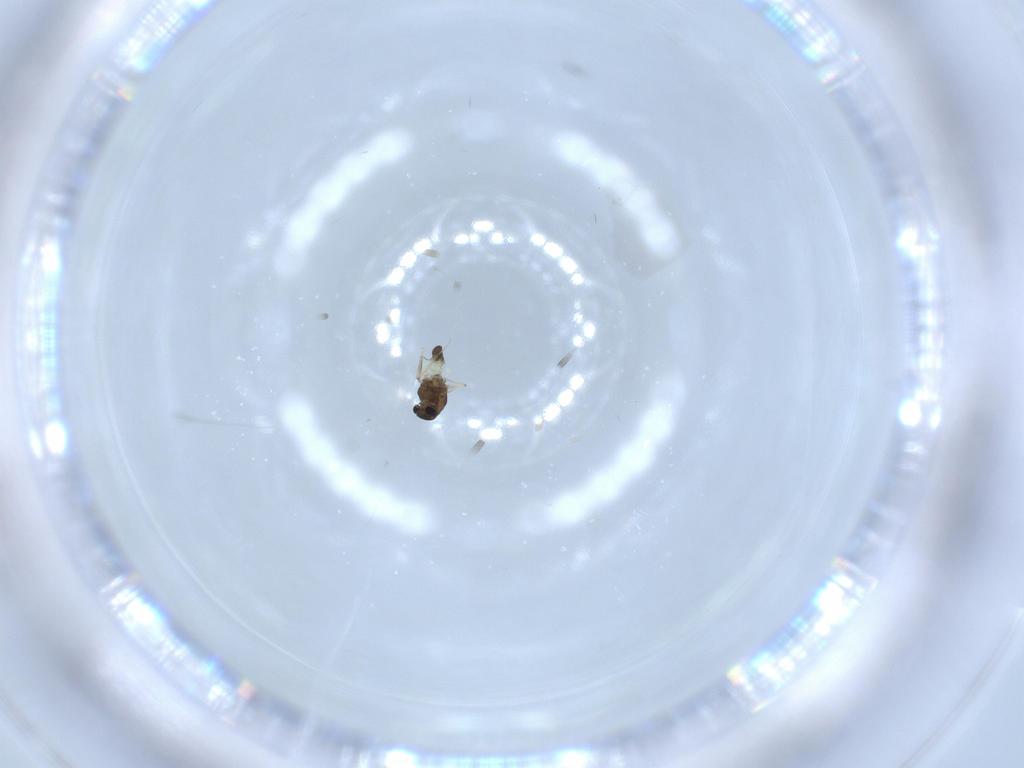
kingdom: Animalia
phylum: Arthropoda
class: Insecta
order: Diptera
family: Chironomidae
